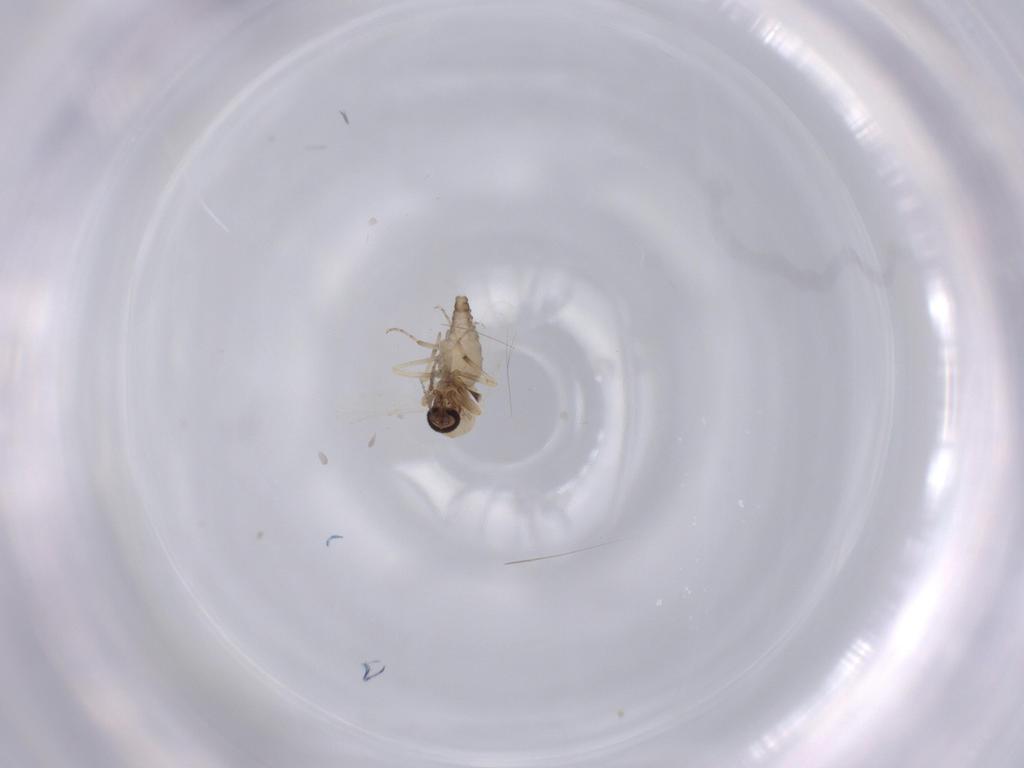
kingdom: Animalia
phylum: Arthropoda
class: Insecta
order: Diptera
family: Ceratopogonidae
